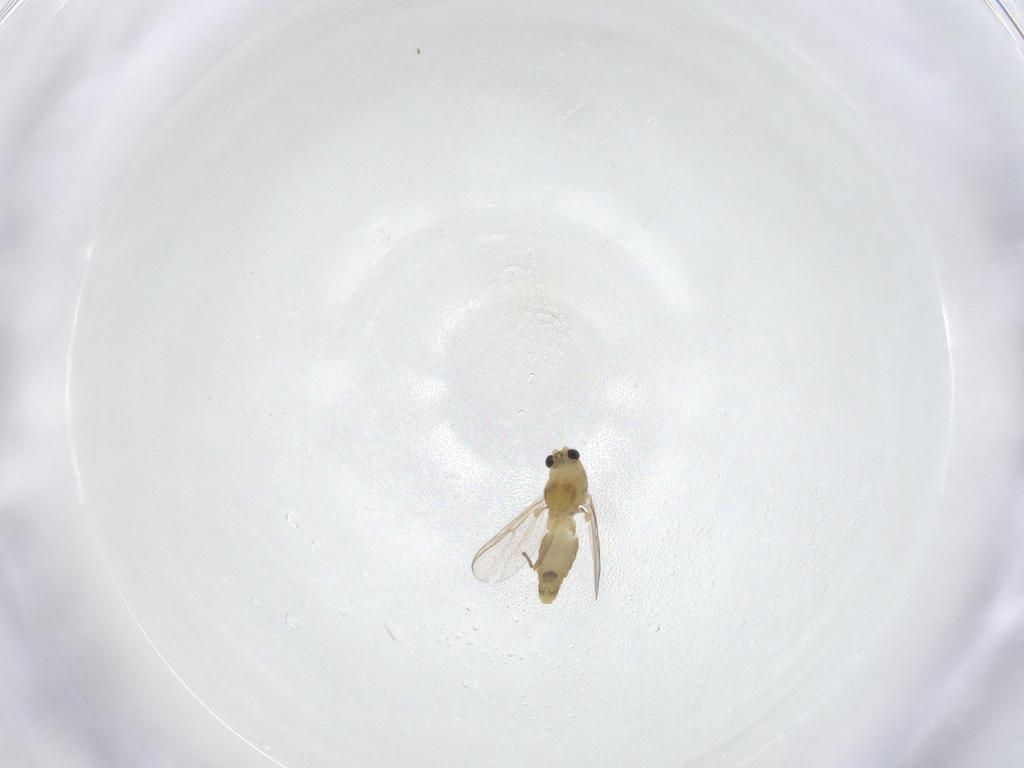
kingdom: Animalia
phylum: Arthropoda
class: Insecta
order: Diptera
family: Chironomidae
